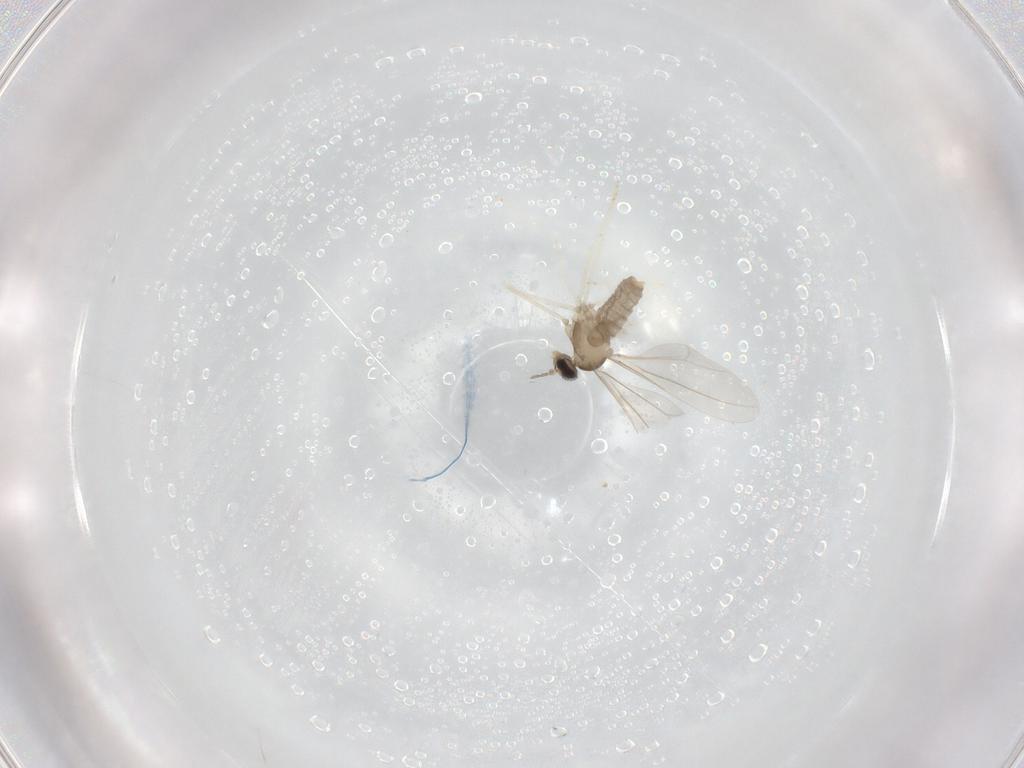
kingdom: Animalia
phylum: Arthropoda
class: Insecta
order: Diptera
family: Cecidomyiidae
